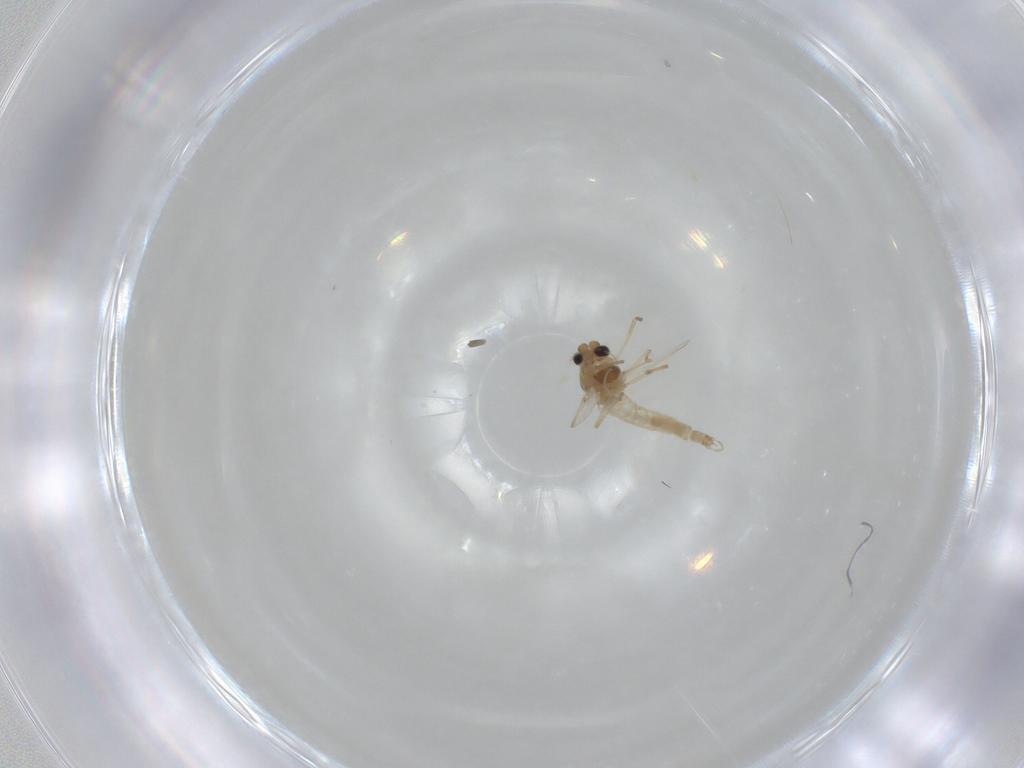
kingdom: Animalia
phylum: Arthropoda
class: Insecta
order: Diptera
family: Chironomidae
